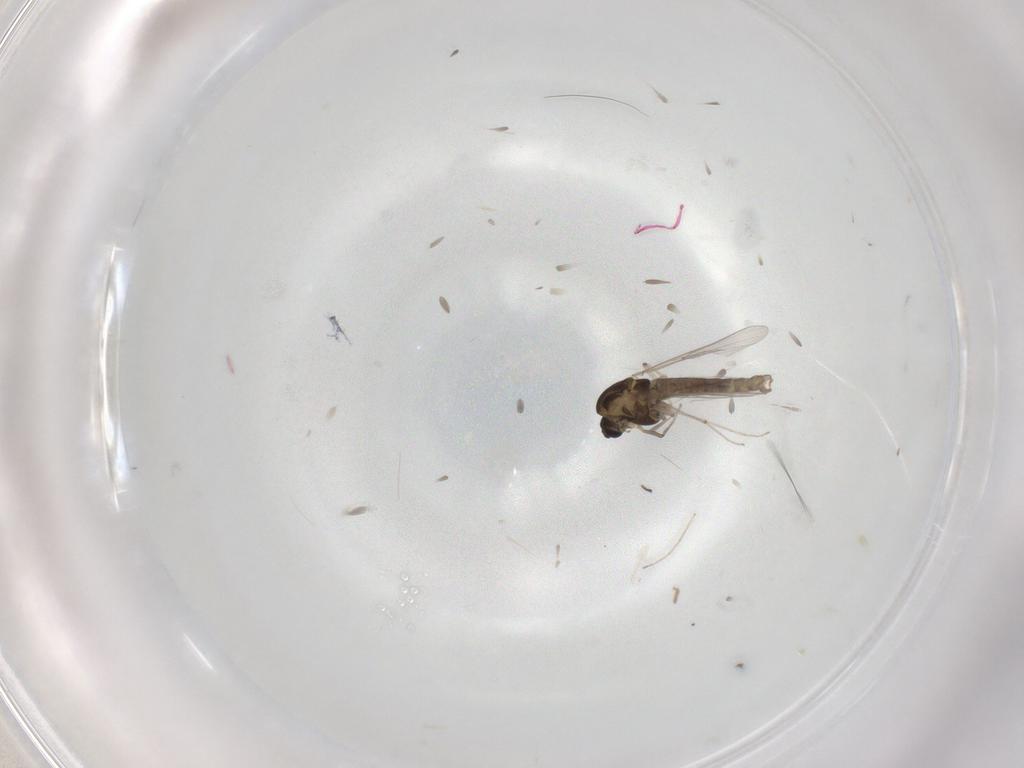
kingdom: Animalia
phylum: Arthropoda
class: Insecta
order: Diptera
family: Chironomidae
